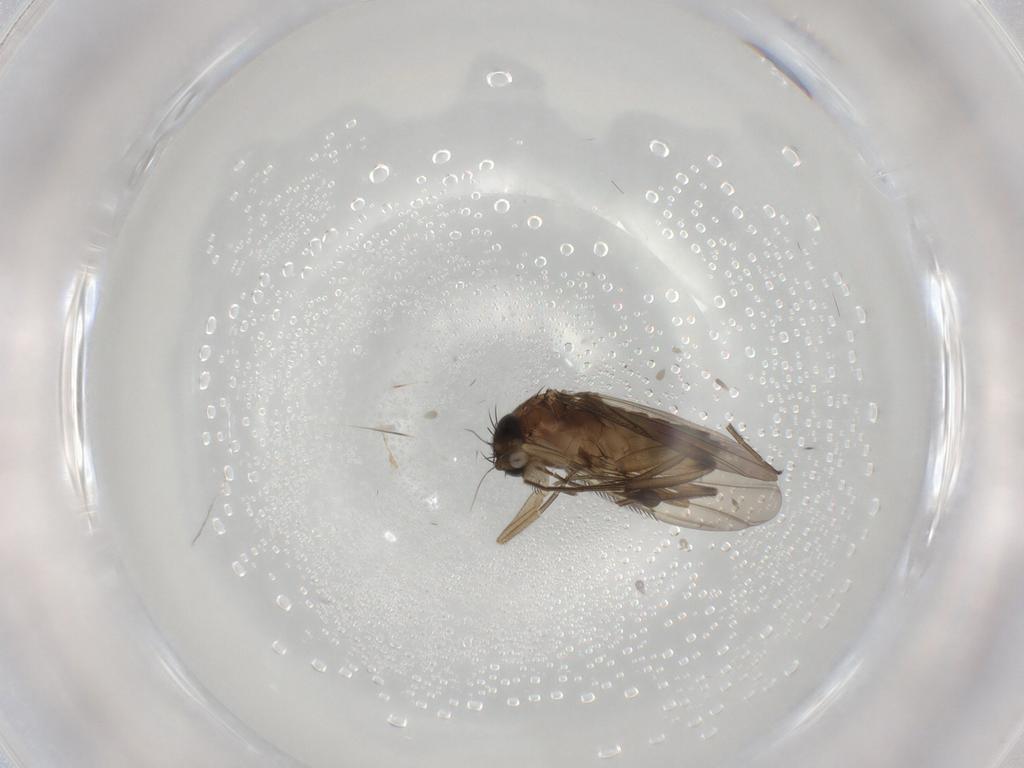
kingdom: Animalia
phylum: Arthropoda
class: Insecta
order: Diptera
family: Phoridae
